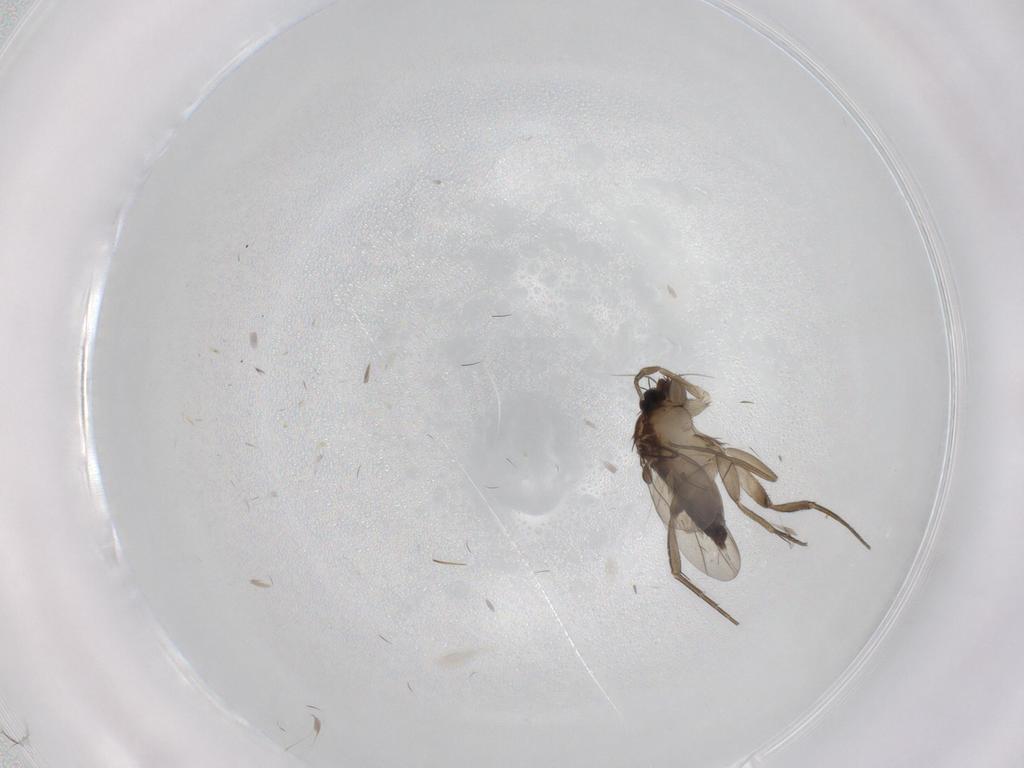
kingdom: Animalia
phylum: Arthropoda
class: Insecta
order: Diptera
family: Phoridae
